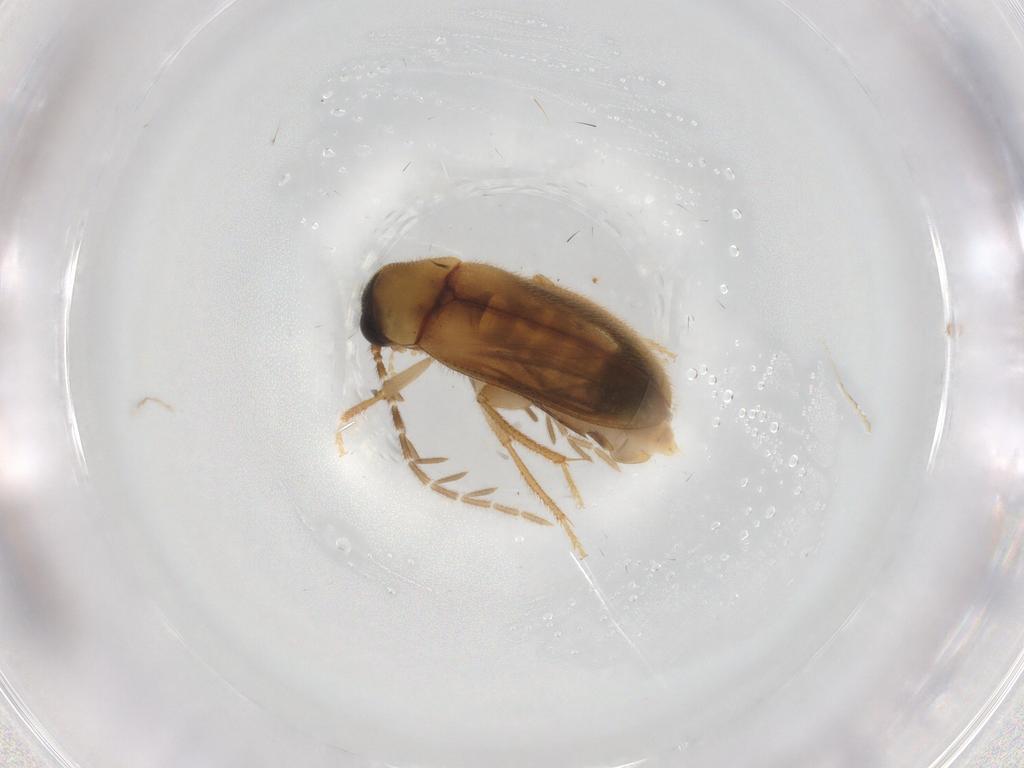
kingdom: Animalia
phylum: Arthropoda
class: Insecta
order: Coleoptera
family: Ptilodactylidae
